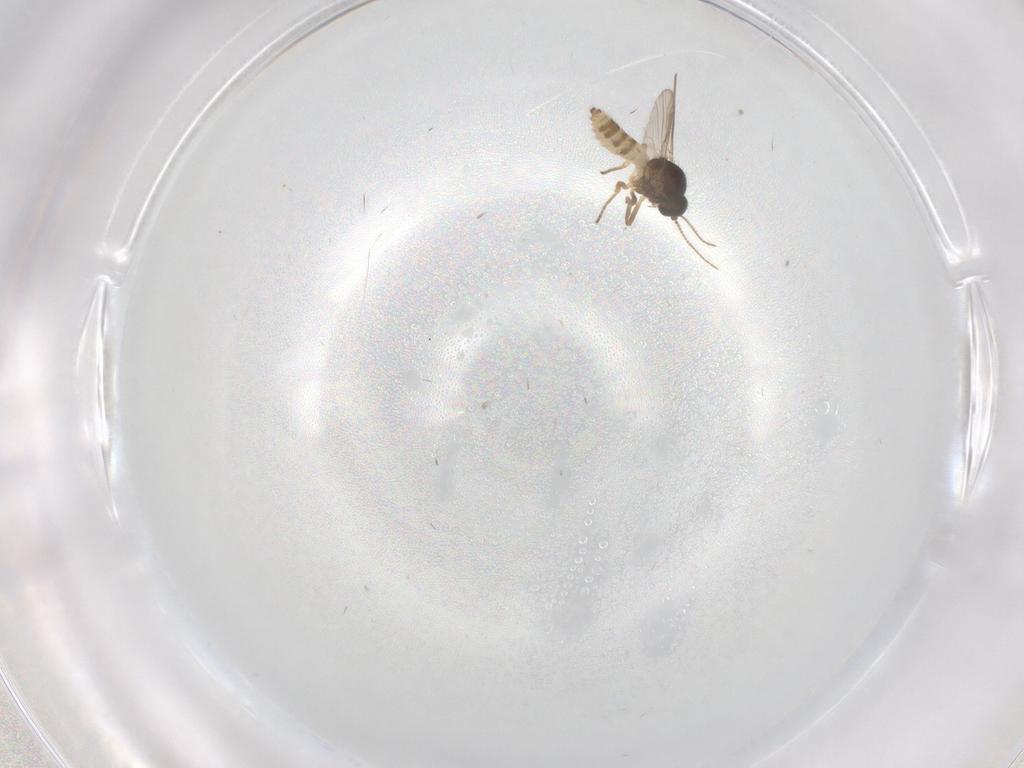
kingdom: Animalia
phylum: Arthropoda
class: Insecta
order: Diptera
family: Ceratopogonidae
